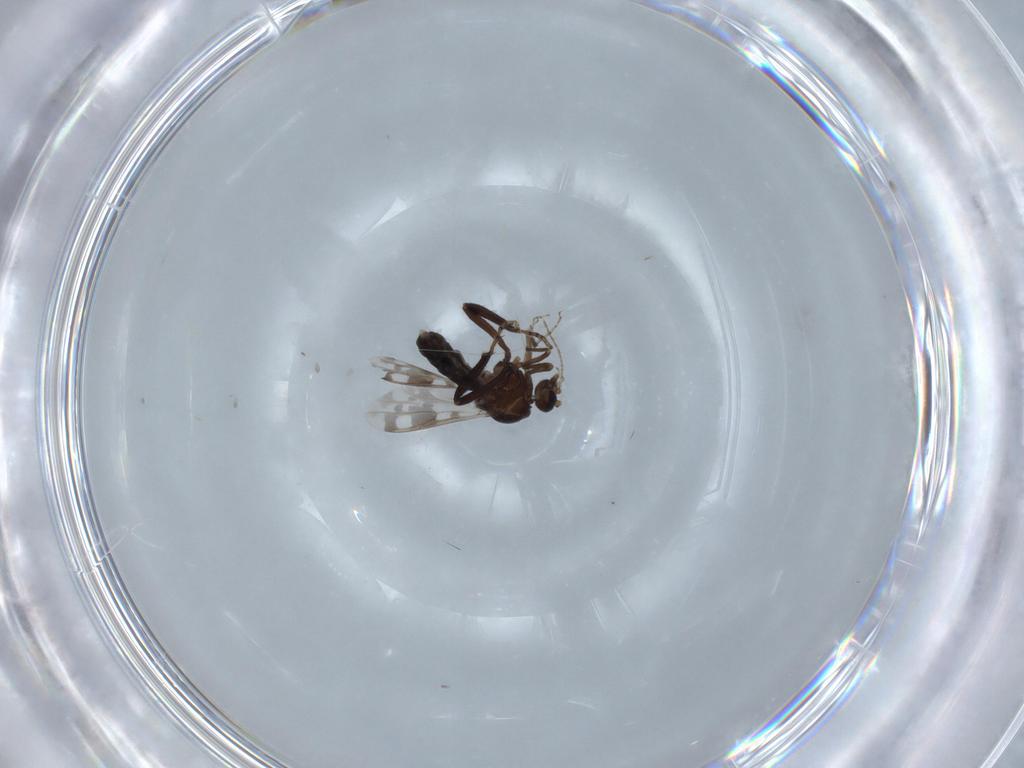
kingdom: Animalia
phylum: Arthropoda
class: Insecta
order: Diptera
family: Ceratopogonidae
